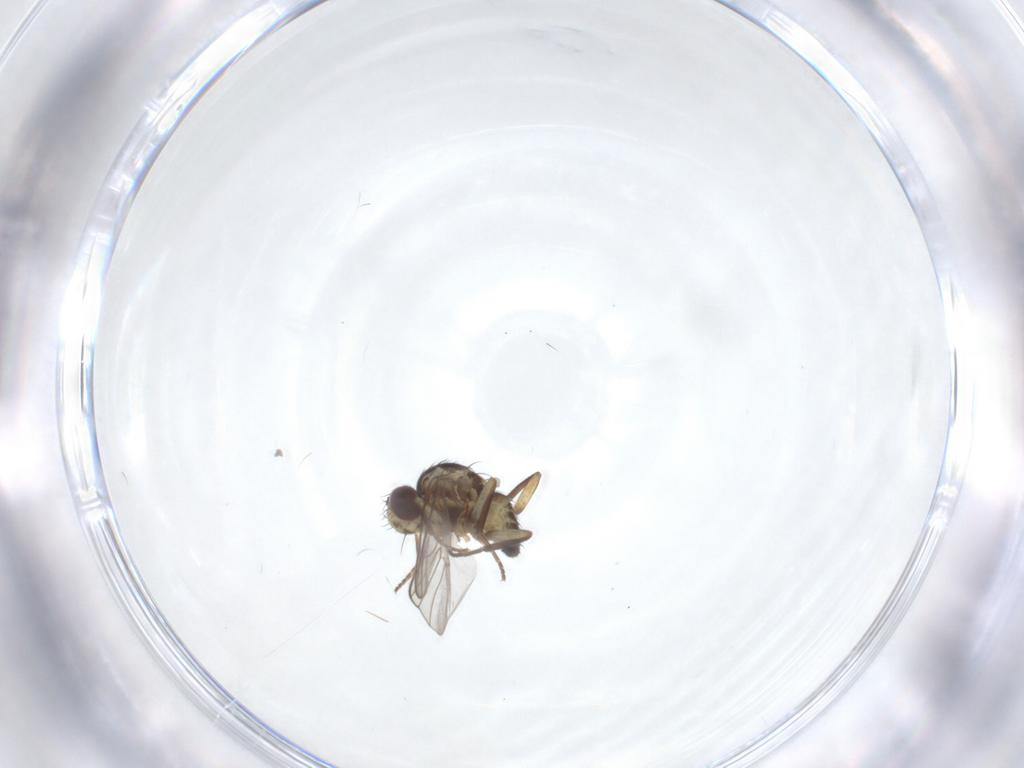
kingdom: Animalia
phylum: Arthropoda
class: Insecta
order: Diptera
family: Agromyzidae
